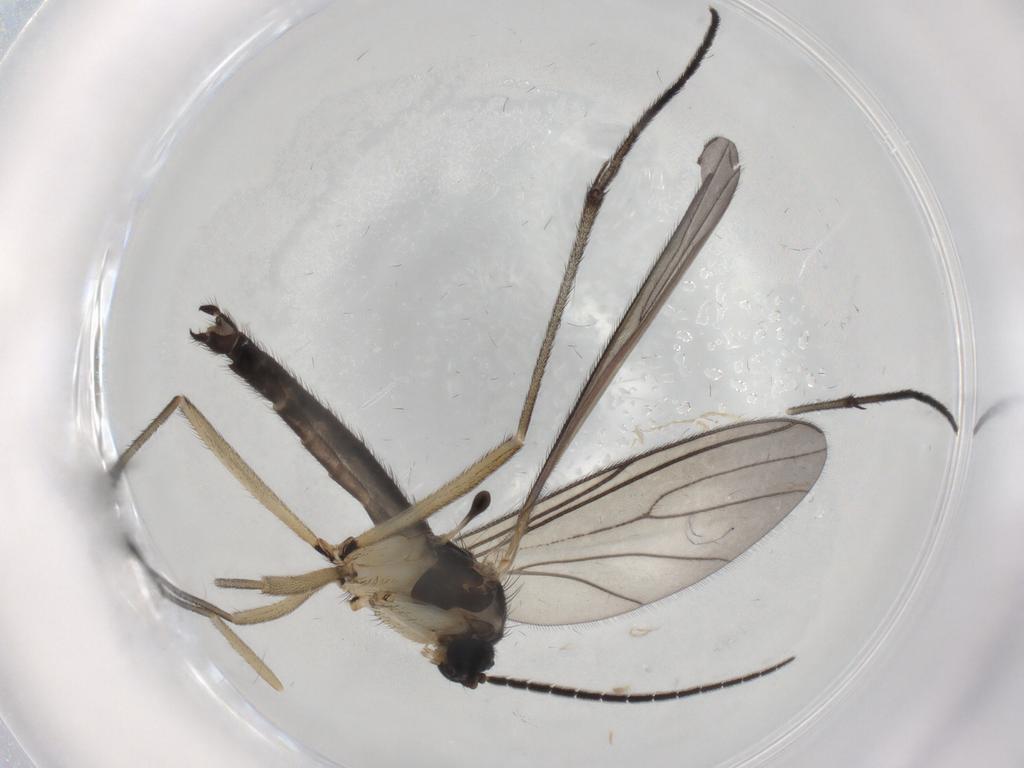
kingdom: Animalia
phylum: Arthropoda
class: Insecta
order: Diptera
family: Sciaridae
